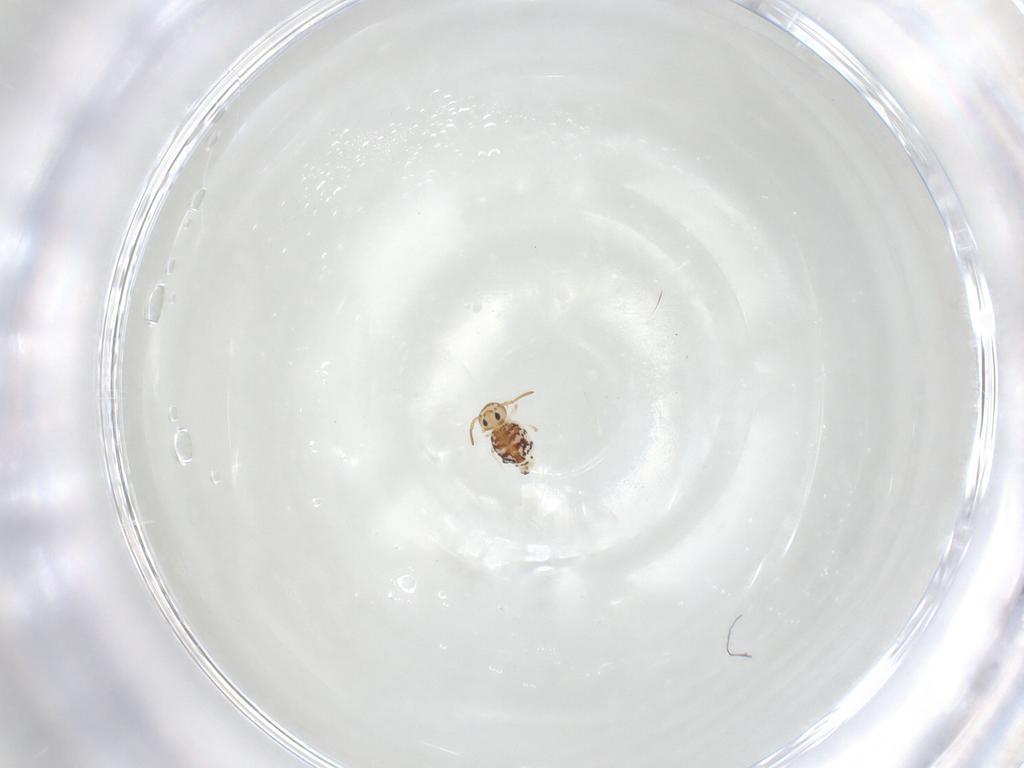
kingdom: Animalia
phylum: Arthropoda
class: Collembola
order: Symphypleona
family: Bourletiellidae
